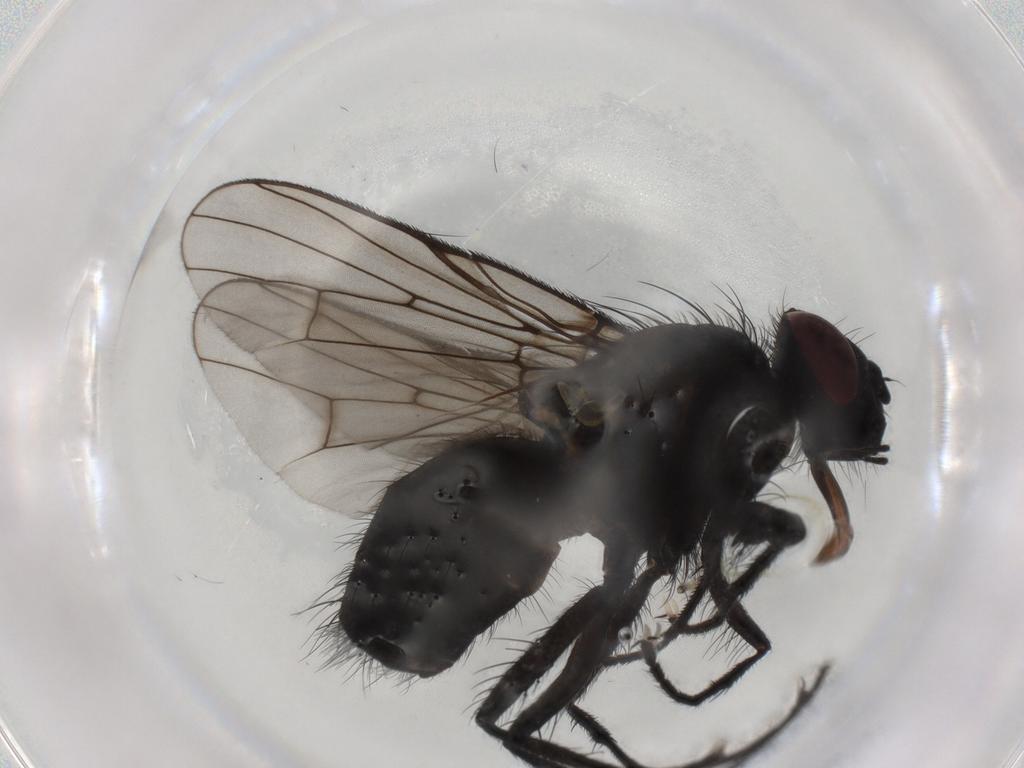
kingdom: Animalia
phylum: Arthropoda
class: Insecta
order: Diptera
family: Muscidae
